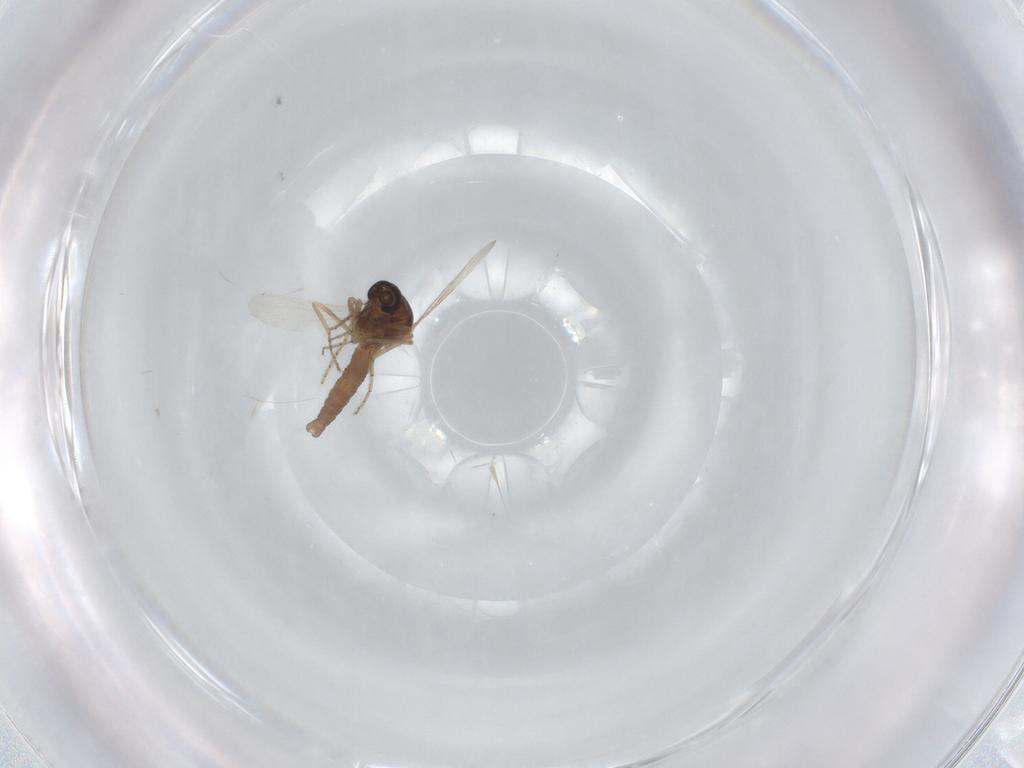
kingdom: Animalia
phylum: Arthropoda
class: Insecta
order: Diptera
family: Ceratopogonidae
